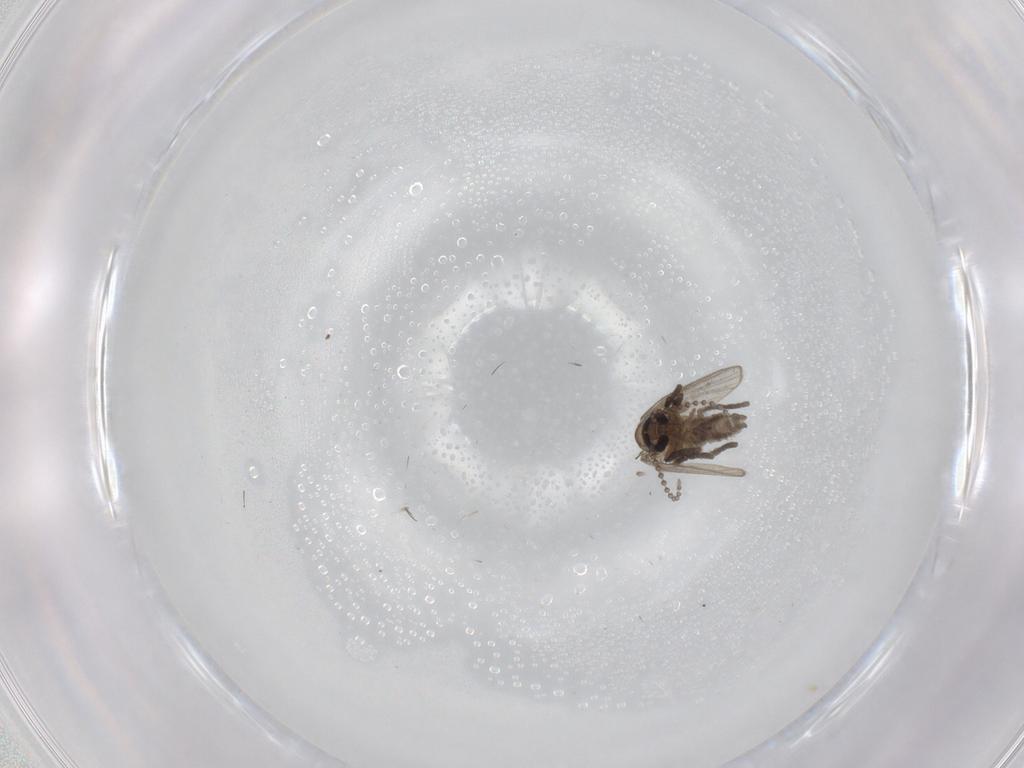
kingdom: Animalia
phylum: Arthropoda
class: Insecta
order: Diptera
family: Psychodidae
